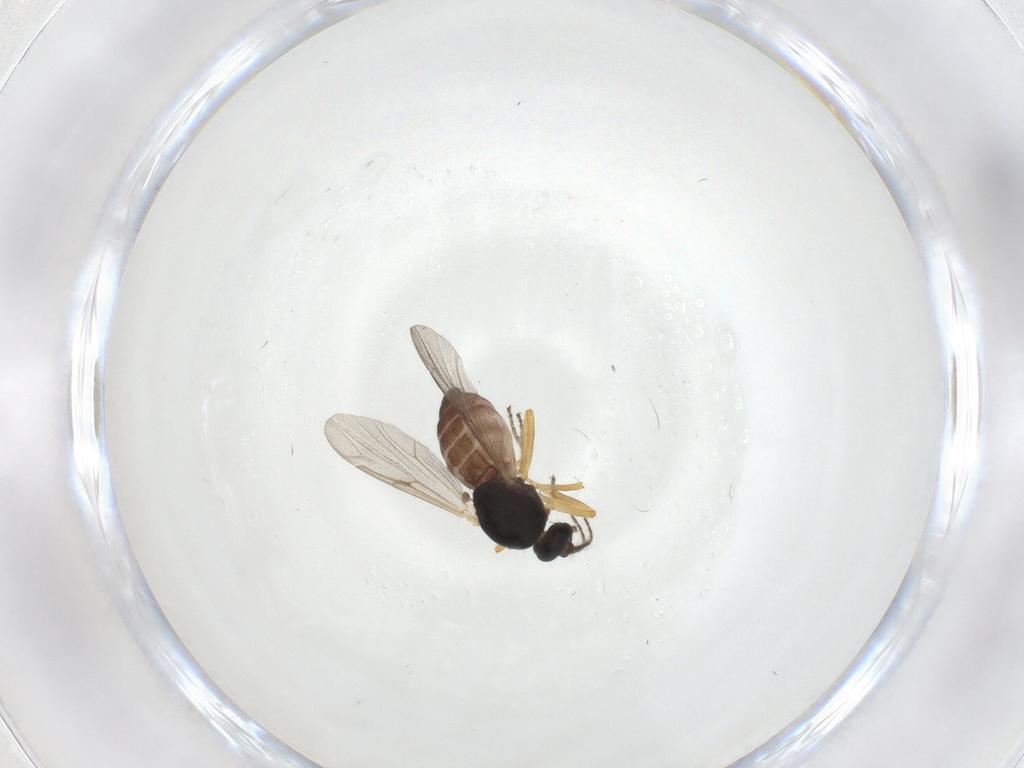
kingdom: Animalia
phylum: Arthropoda
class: Insecta
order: Diptera
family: Ceratopogonidae
